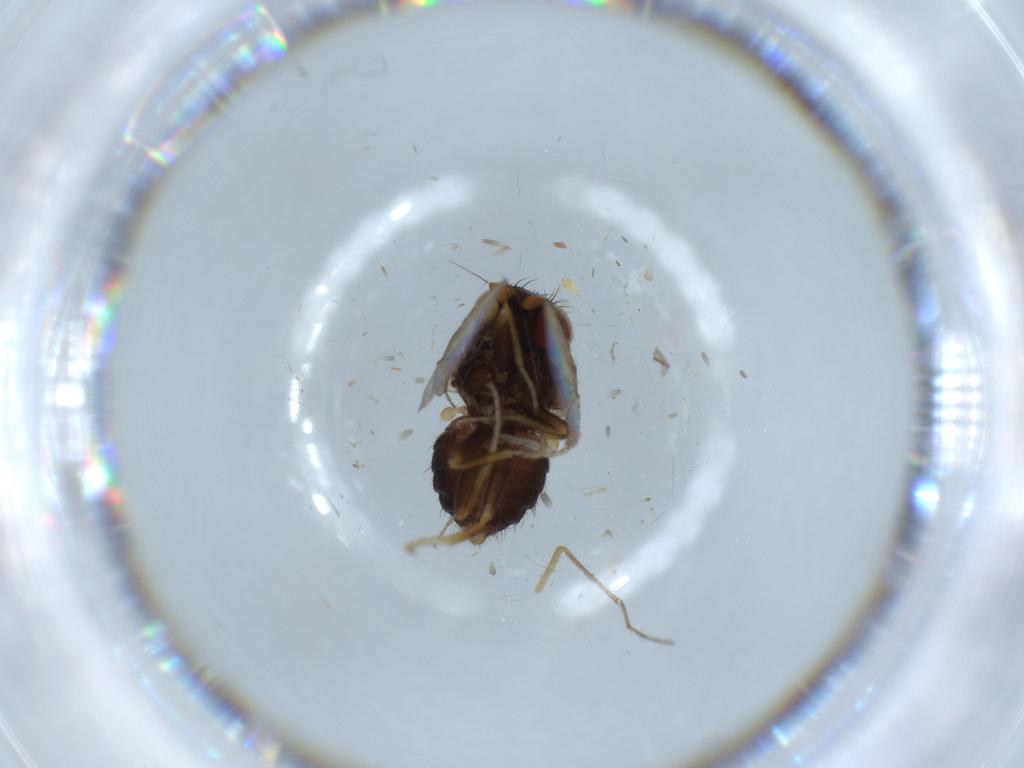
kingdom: Animalia
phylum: Arthropoda
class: Insecta
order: Diptera
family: Milichiidae
